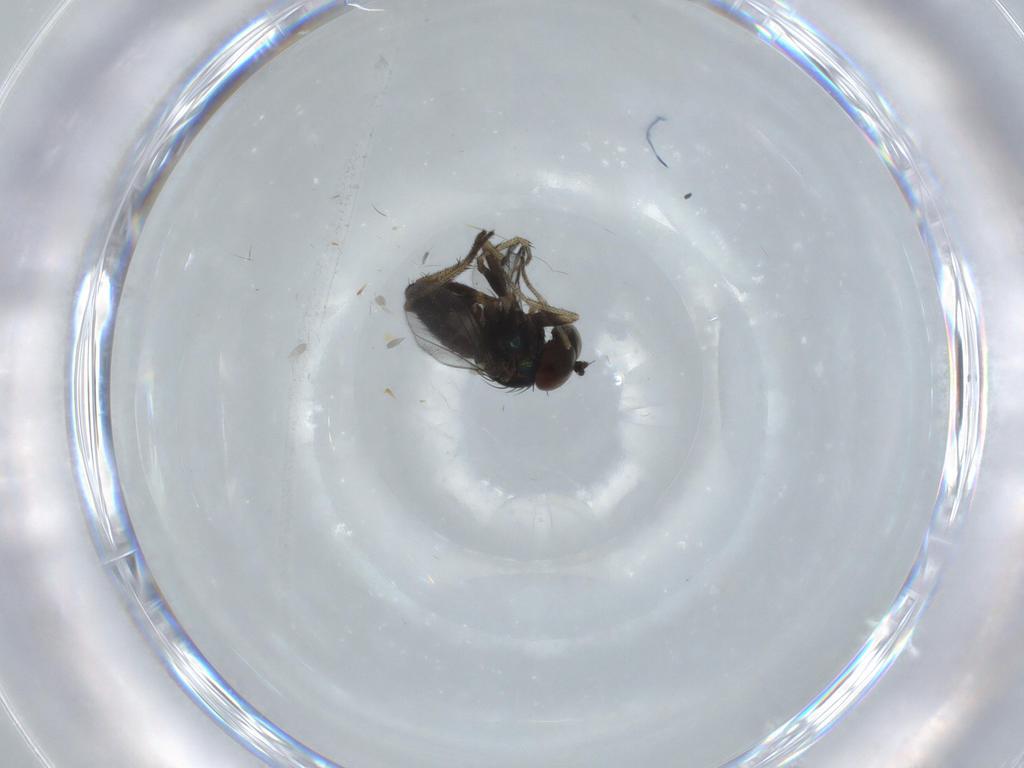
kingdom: Animalia
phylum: Arthropoda
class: Insecta
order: Diptera
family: Dolichopodidae
